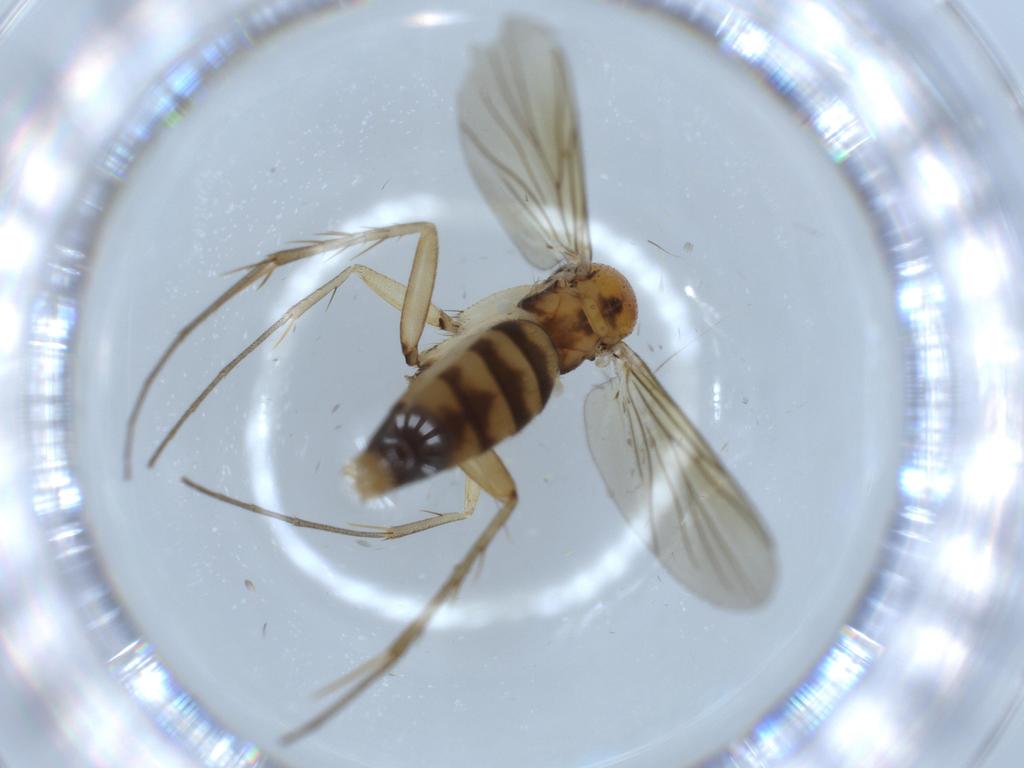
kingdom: Animalia
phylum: Arthropoda
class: Insecta
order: Diptera
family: Mycetophilidae
